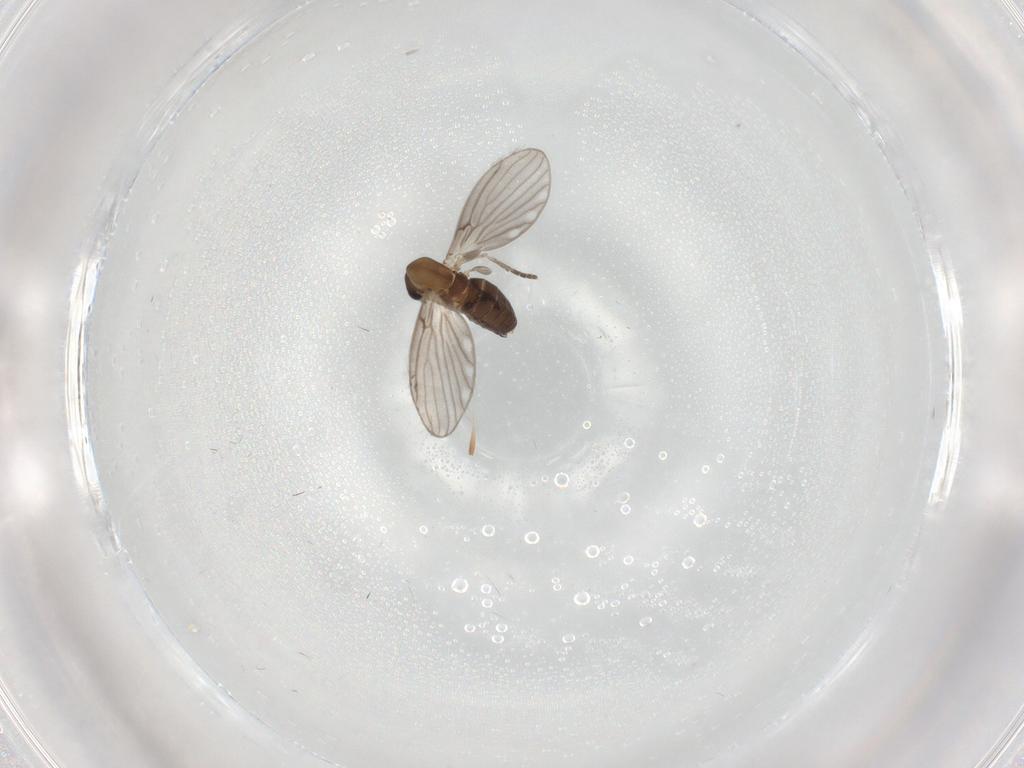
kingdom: Animalia
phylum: Arthropoda
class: Insecta
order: Diptera
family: Psychodidae
